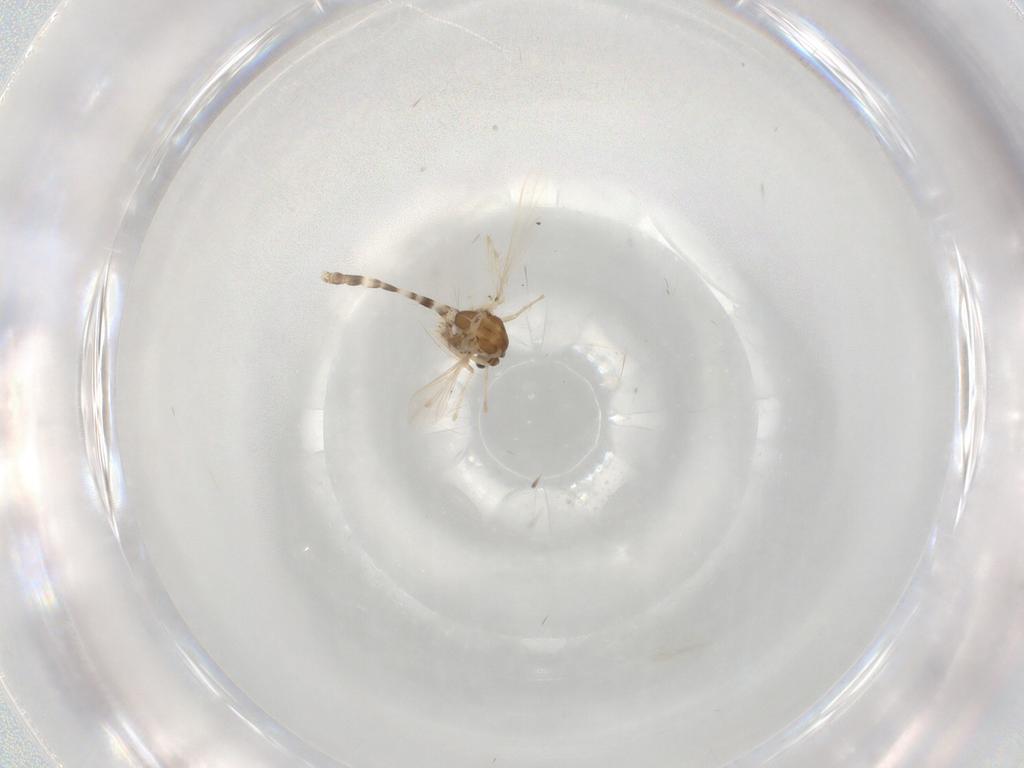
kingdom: Animalia
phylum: Arthropoda
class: Insecta
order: Diptera
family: Chironomidae
